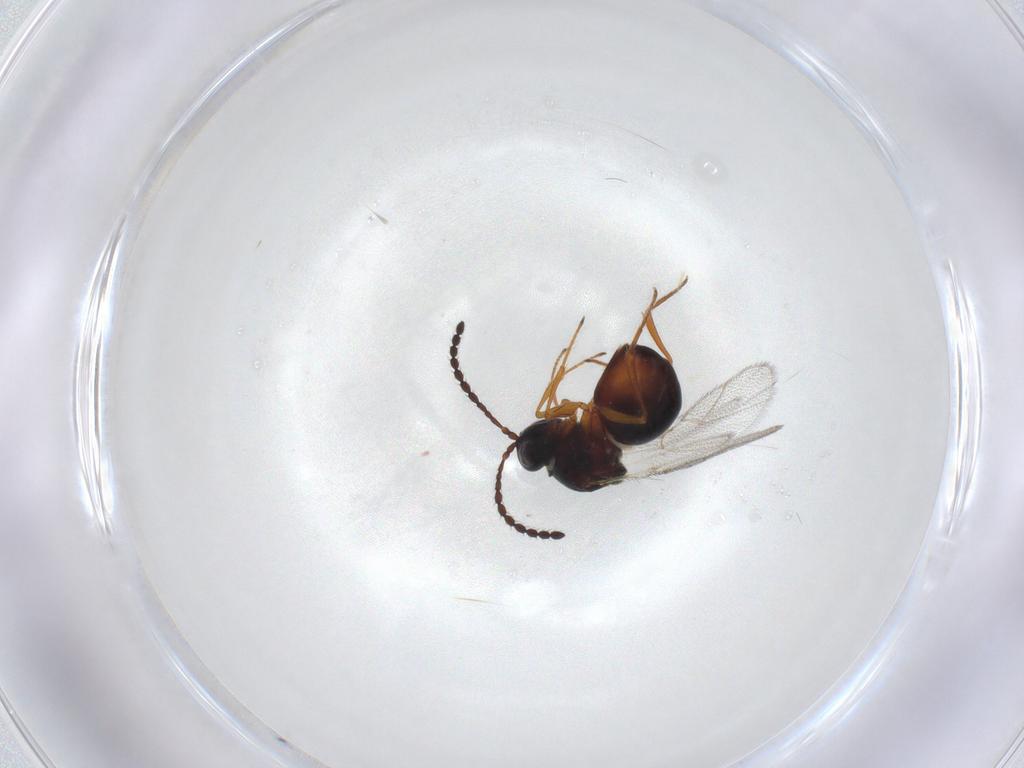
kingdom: Animalia
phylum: Arthropoda
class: Insecta
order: Hymenoptera
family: Figitidae
